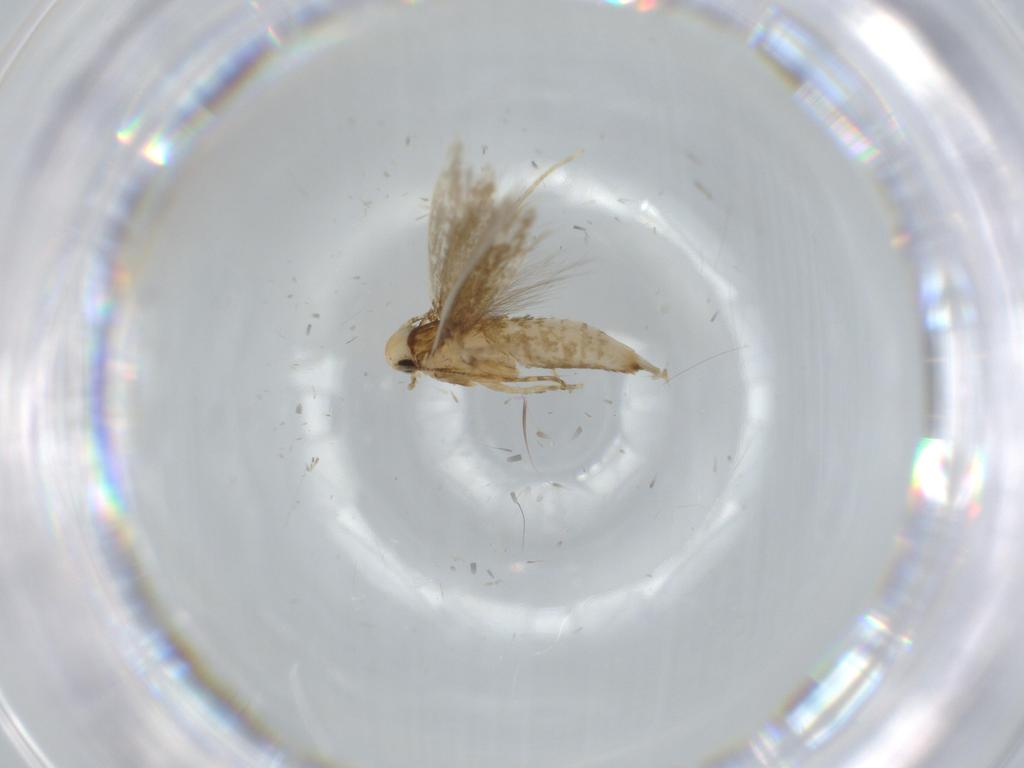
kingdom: Animalia
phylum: Arthropoda
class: Insecta
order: Lepidoptera
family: Tineidae
